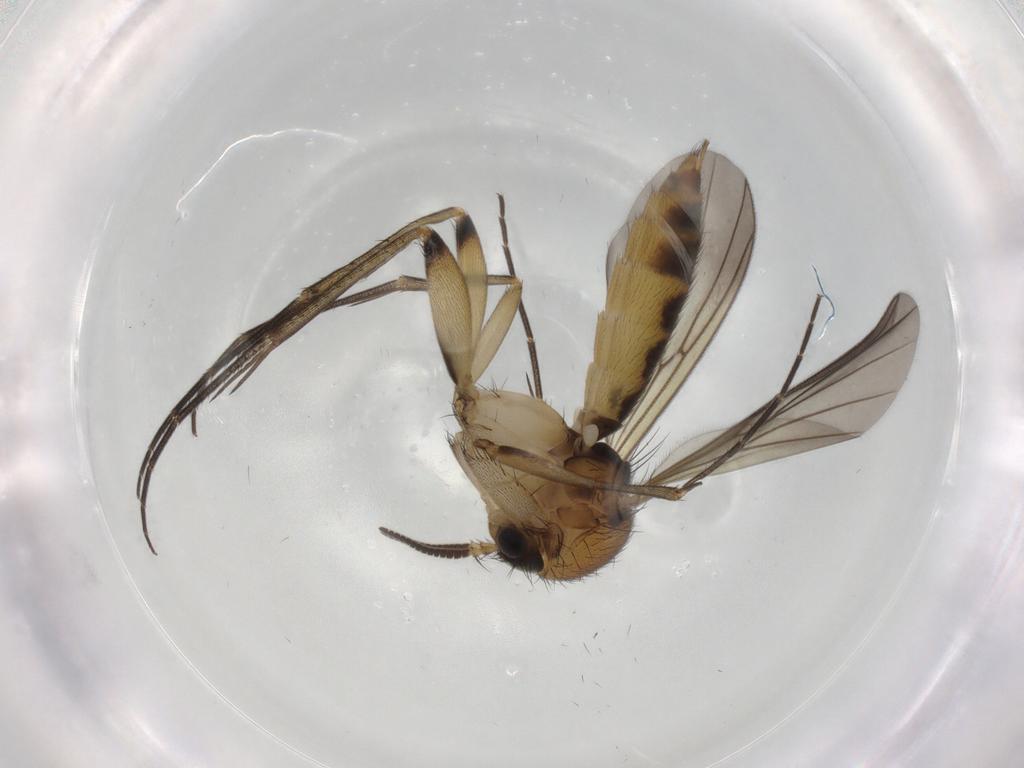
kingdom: Animalia
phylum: Arthropoda
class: Insecta
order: Diptera
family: Mycetophilidae
